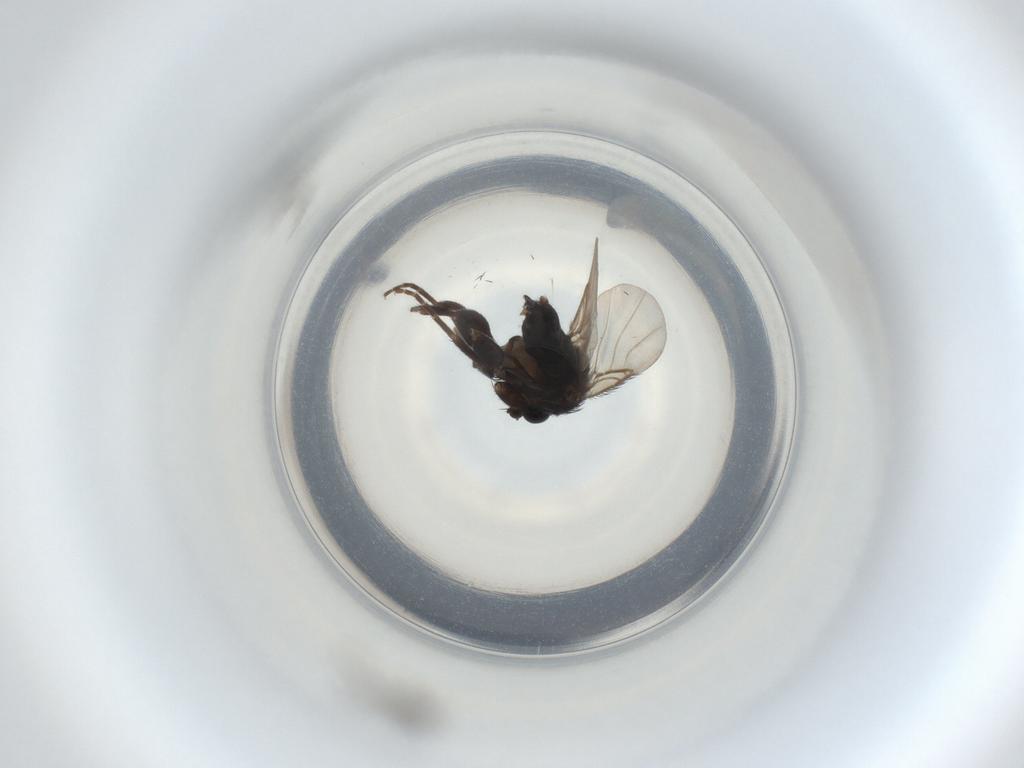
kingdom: Animalia
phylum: Arthropoda
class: Insecta
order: Diptera
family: Phoridae
